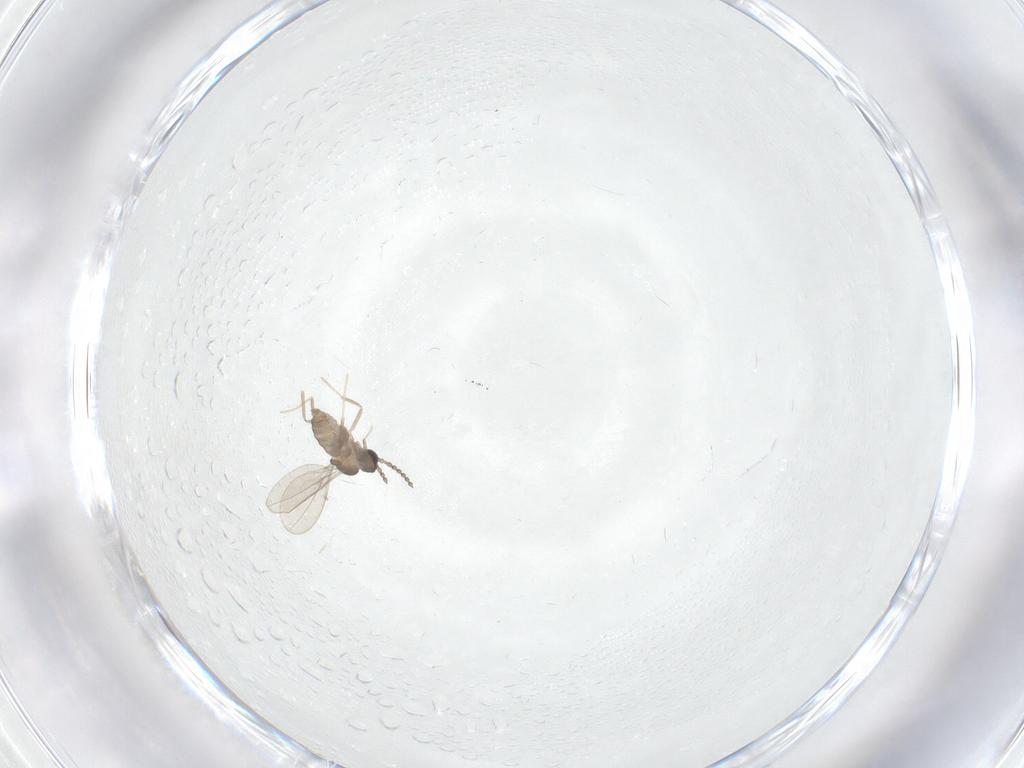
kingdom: Animalia
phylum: Arthropoda
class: Insecta
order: Diptera
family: Cecidomyiidae
